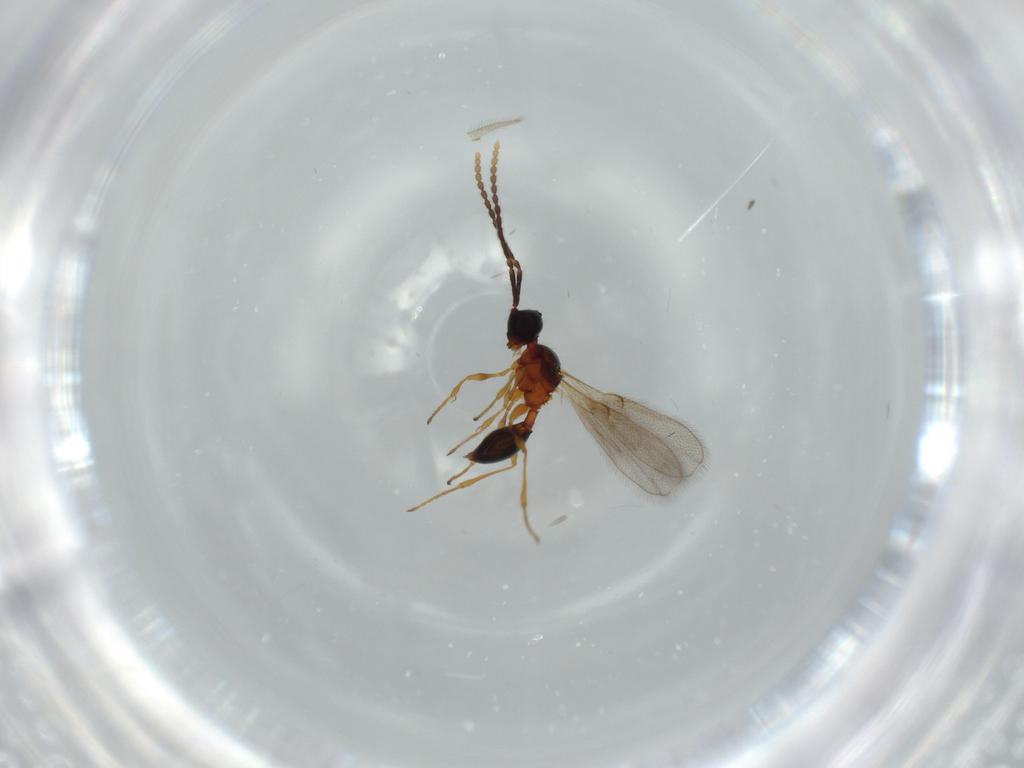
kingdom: Animalia
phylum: Arthropoda
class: Insecta
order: Hymenoptera
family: Diapriidae
